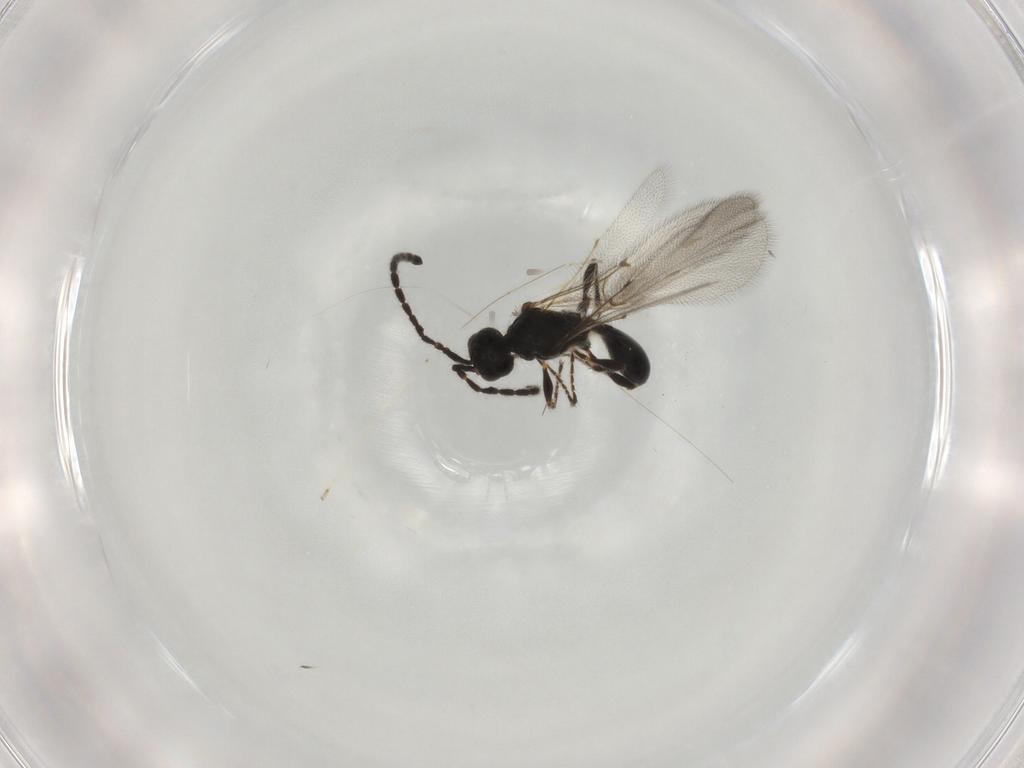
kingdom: Animalia
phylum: Arthropoda
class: Insecta
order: Hymenoptera
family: Diapriidae
